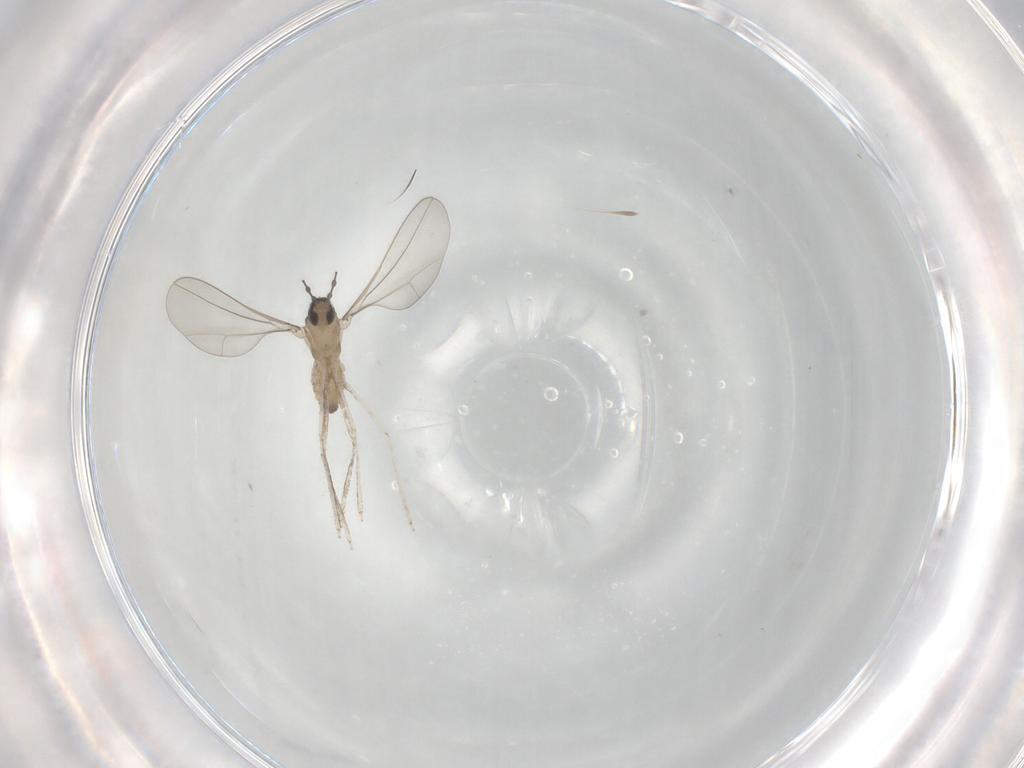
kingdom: Animalia
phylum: Arthropoda
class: Insecta
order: Diptera
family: Cecidomyiidae
